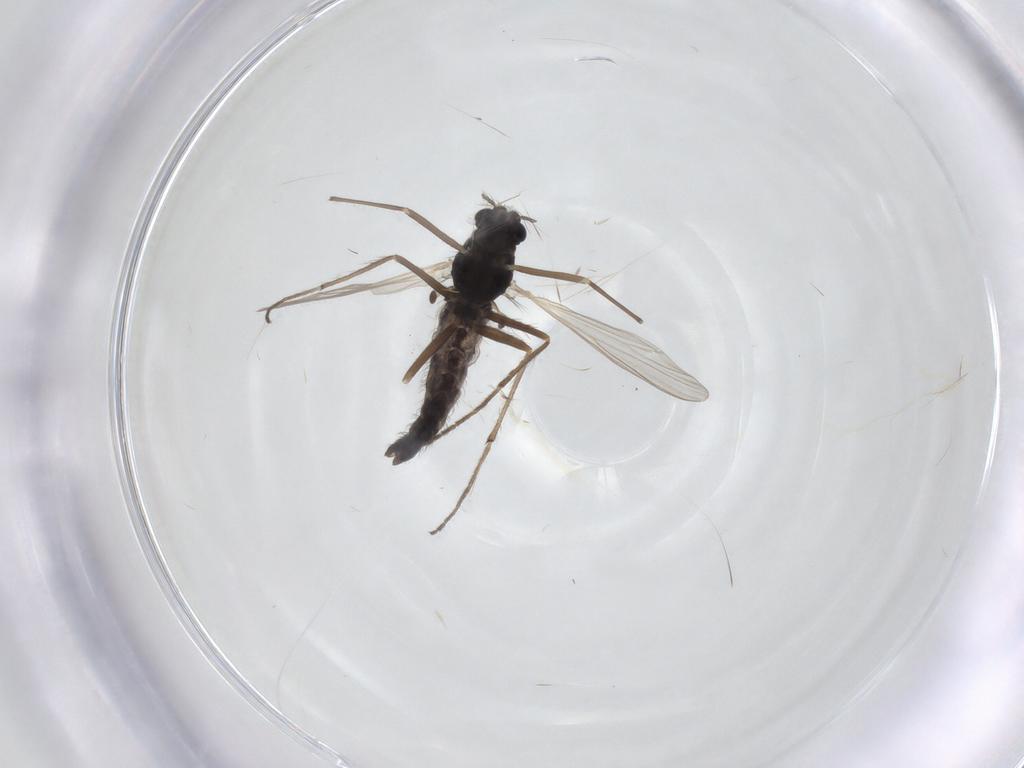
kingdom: Animalia
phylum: Arthropoda
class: Insecta
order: Diptera
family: Chironomidae
